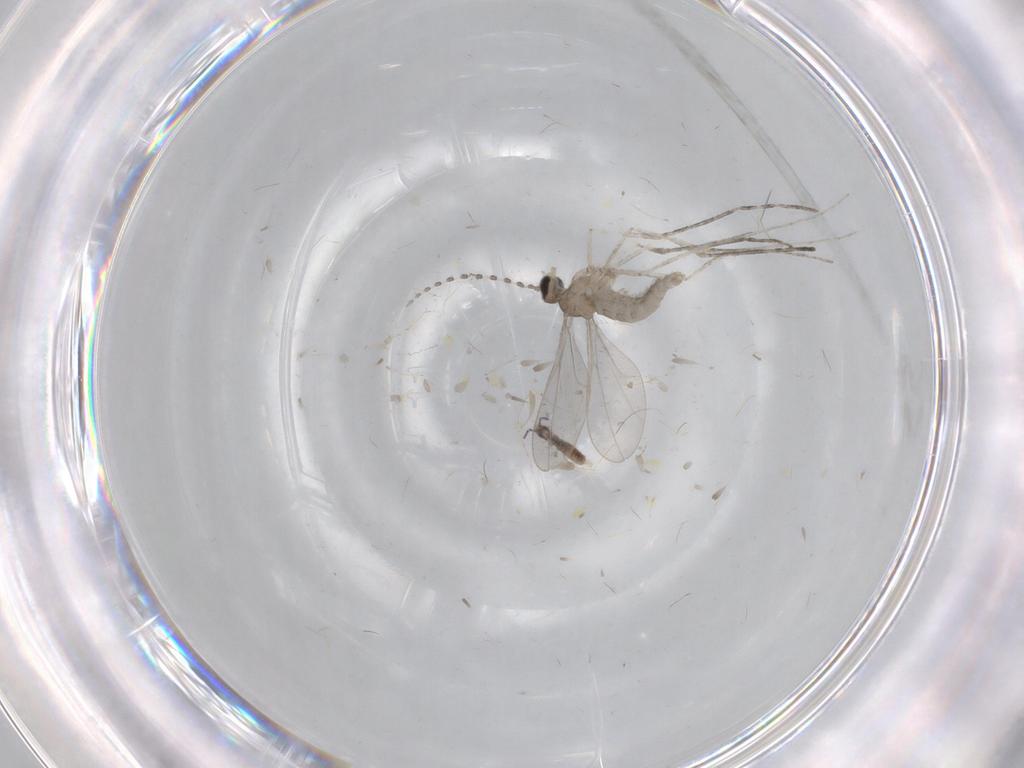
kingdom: Animalia
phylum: Arthropoda
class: Insecta
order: Diptera
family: Cecidomyiidae
